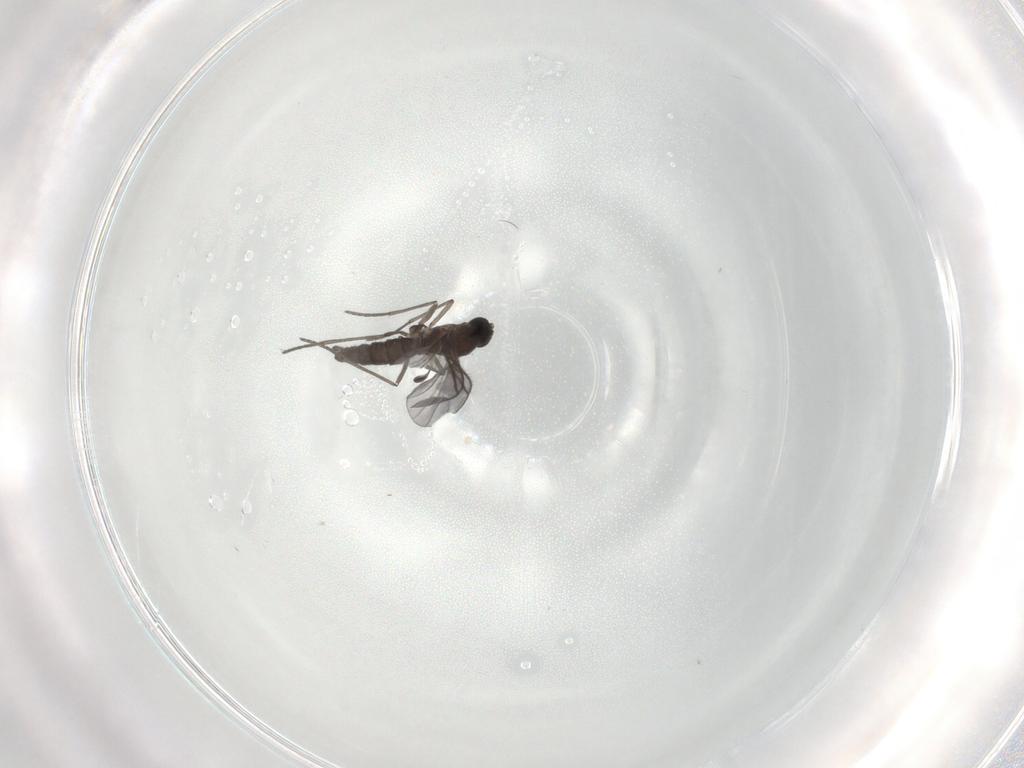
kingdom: Animalia
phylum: Arthropoda
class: Insecta
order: Diptera
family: Sciaridae
